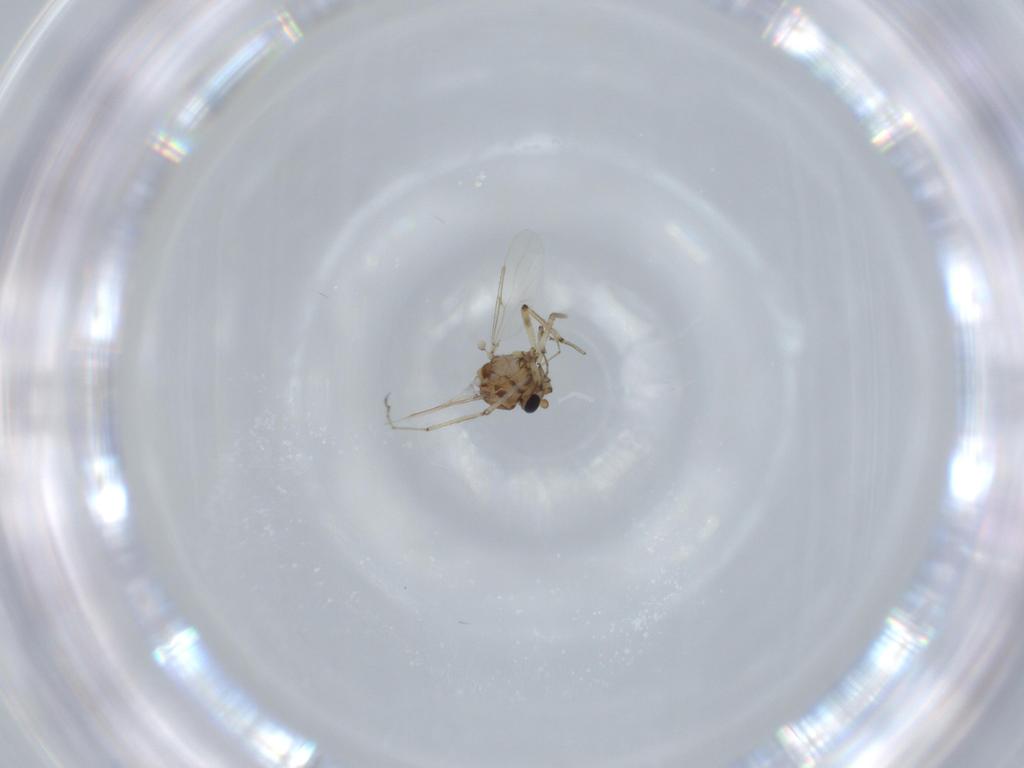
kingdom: Animalia
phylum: Arthropoda
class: Insecta
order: Diptera
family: Ceratopogonidae
